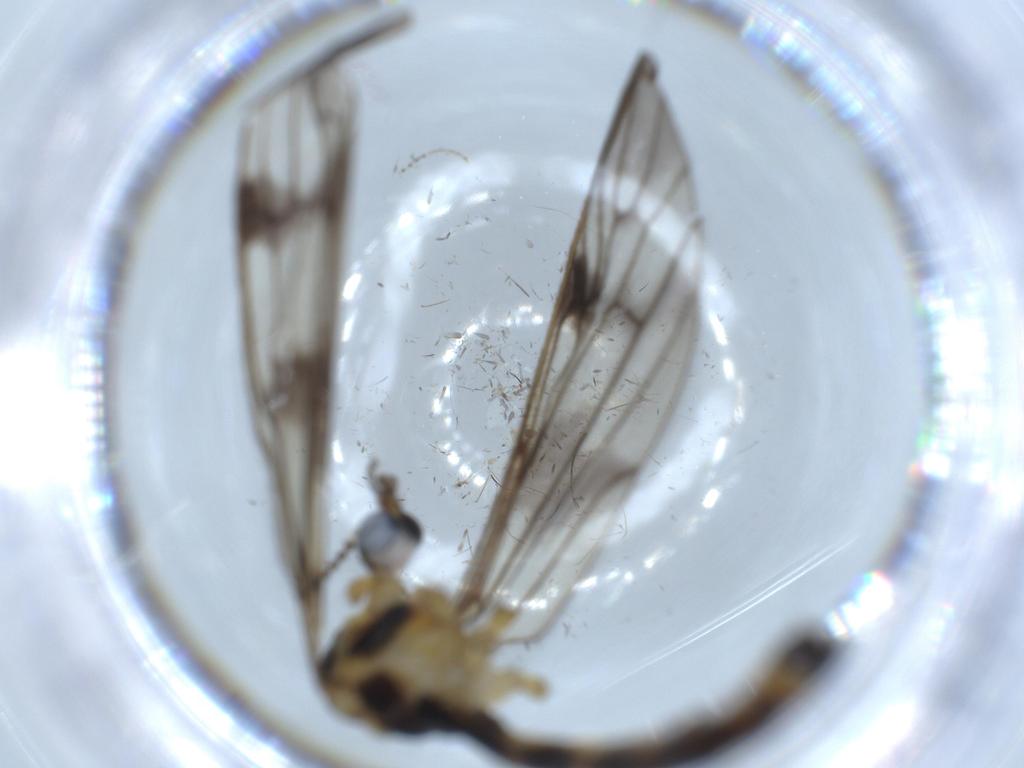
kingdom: Animalia
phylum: Arthropoda
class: Insecta
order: Diptera
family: Phoridae
